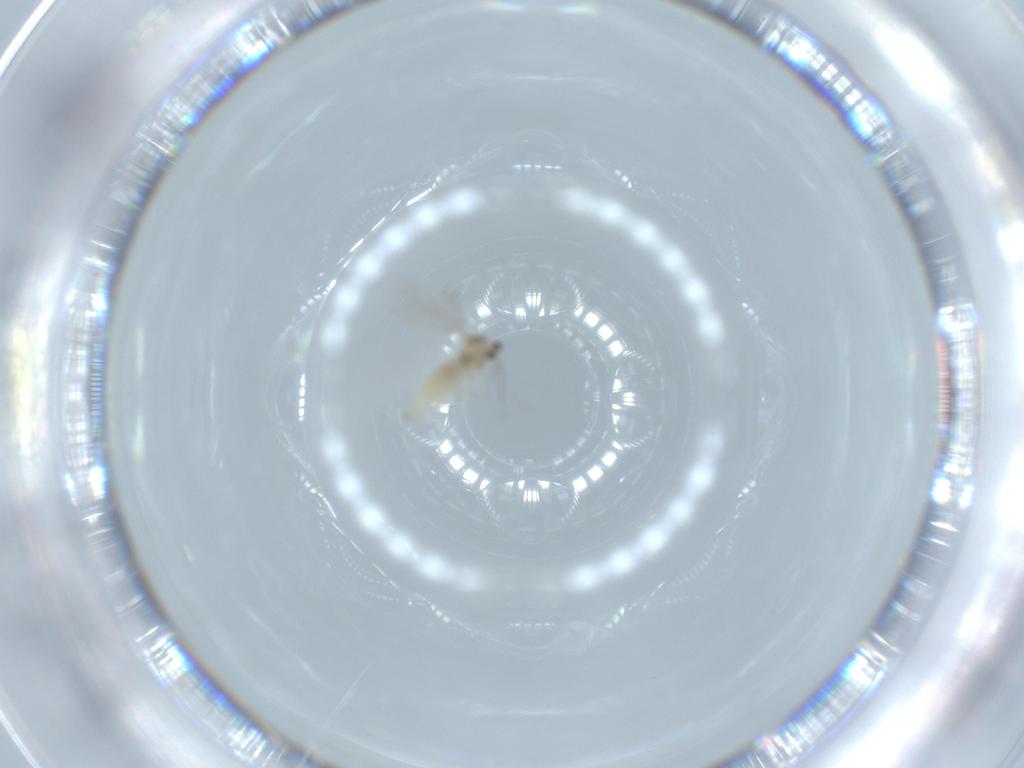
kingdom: Animalia
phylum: Arthropoda
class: Insecta
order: Diptera
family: Cecidomyiidae
